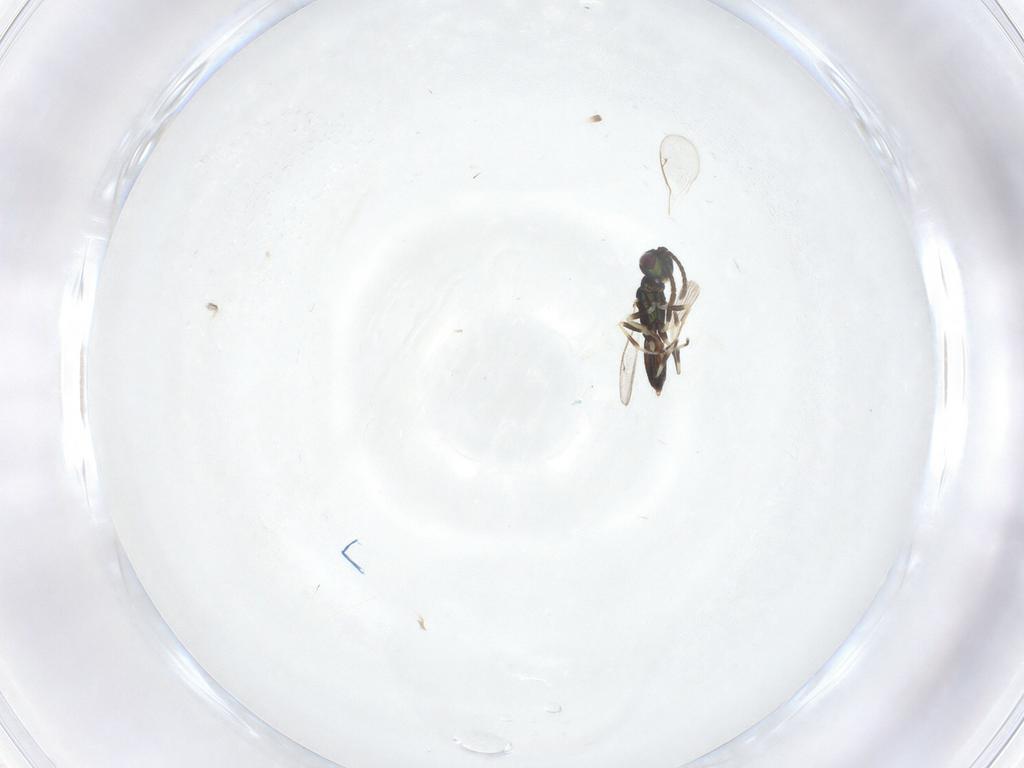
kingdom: Animalia
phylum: Arthropoda
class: Insecta
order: Hymenoptera
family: Eupelmidae
